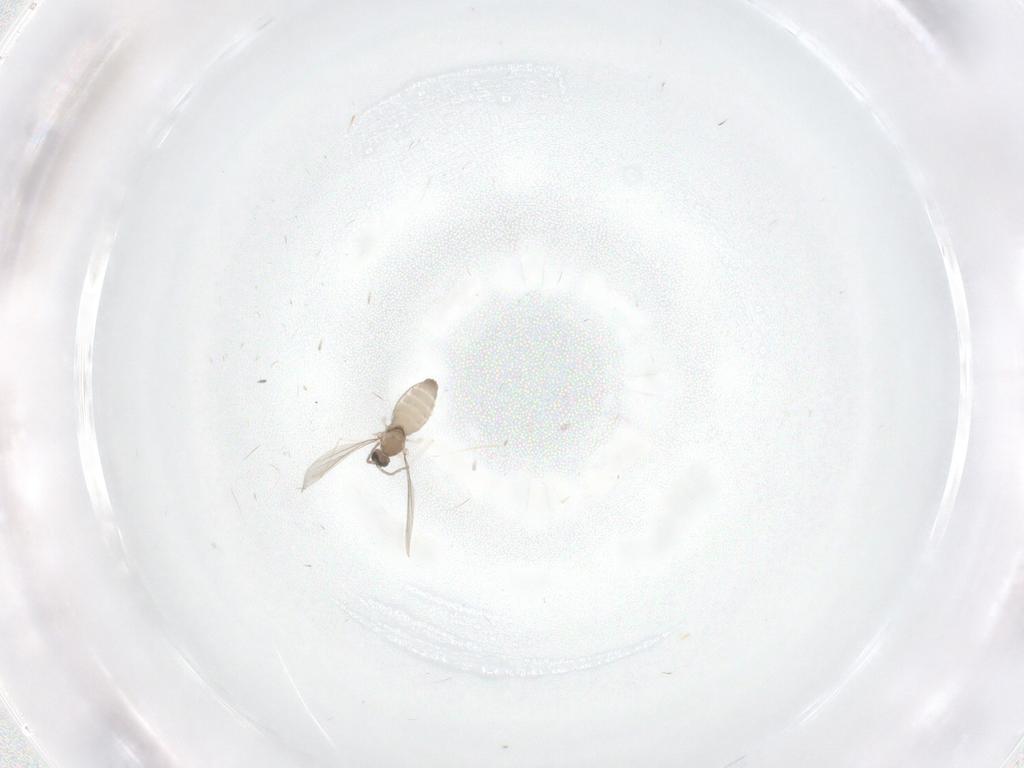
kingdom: Animalia
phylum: Arthropoda
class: Insecta
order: Diptera
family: Cecidomyiidae
